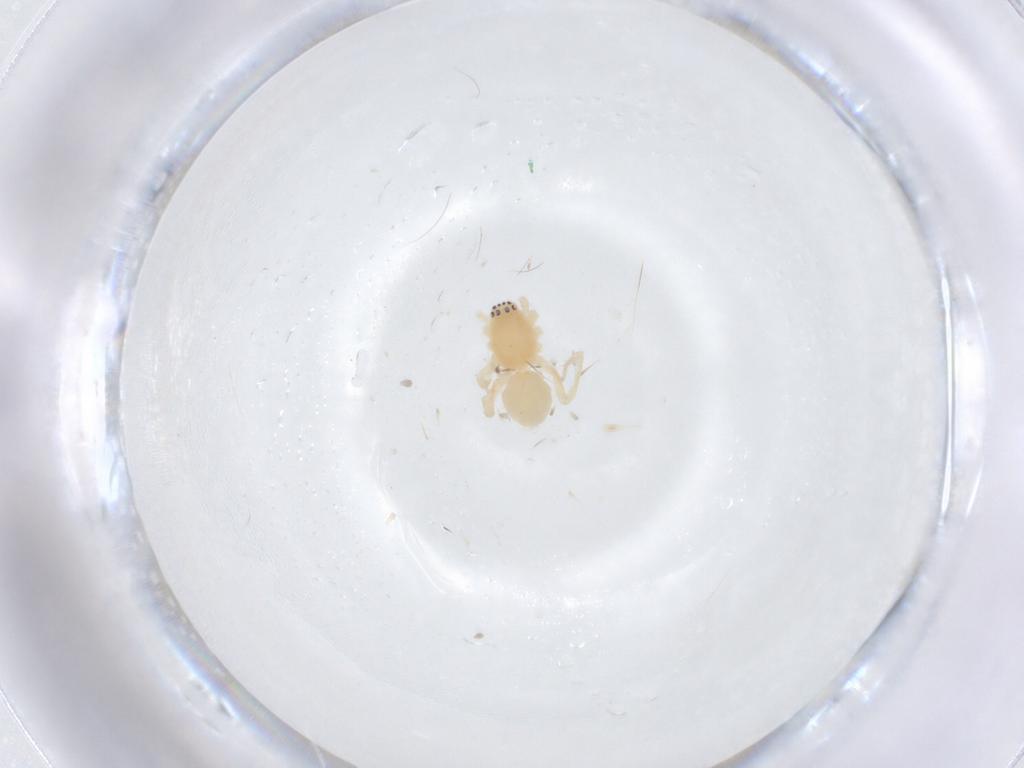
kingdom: Animalia
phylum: Arthropoda
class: Arachnida
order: Araneae
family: Anyphaenidae
